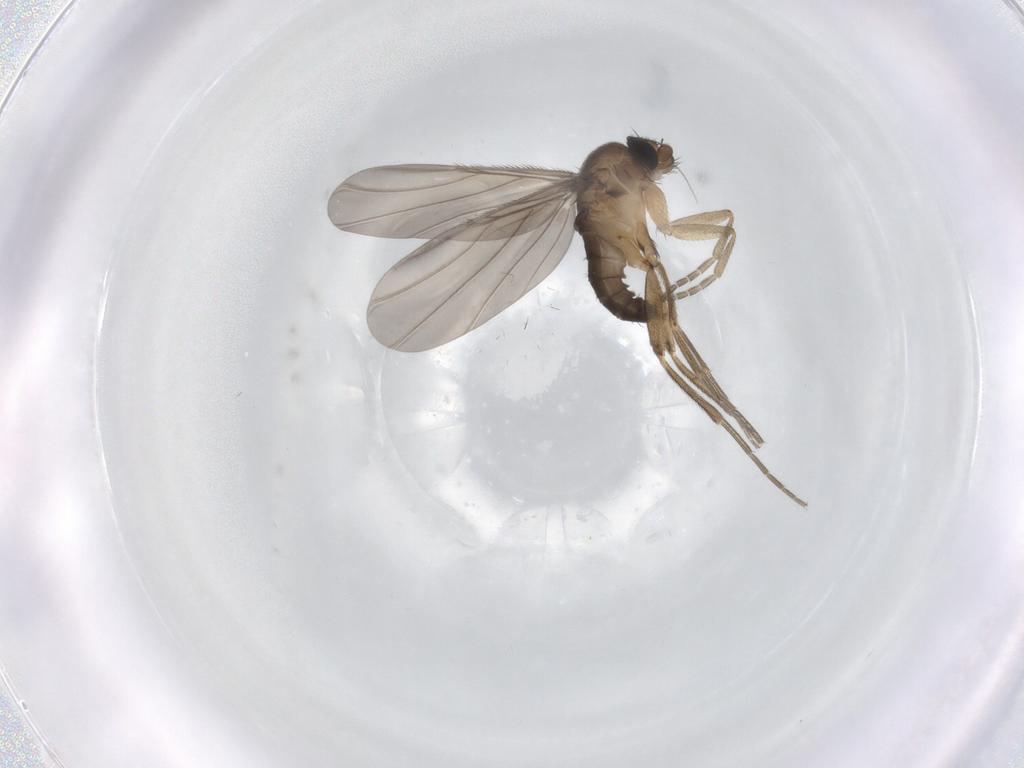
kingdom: Animalia
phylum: Arthropoda
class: Insecta
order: Diptera
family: Phoridae
